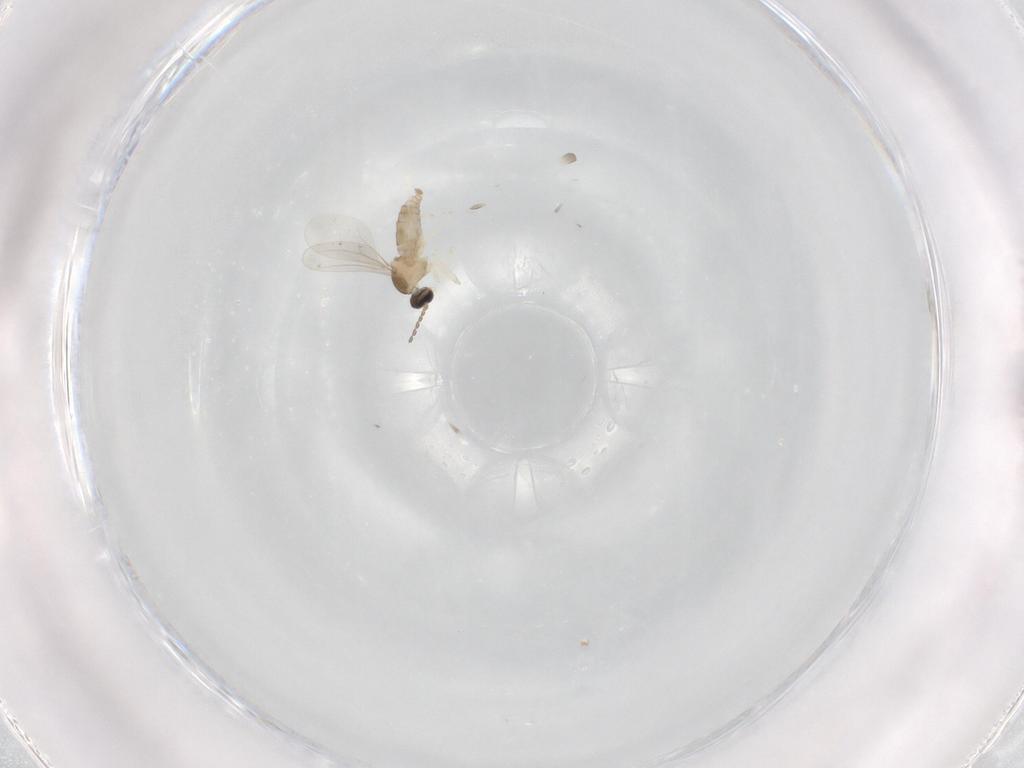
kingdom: Animalia
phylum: Arthropoda
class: Insecta
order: Diptera
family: Cecidomyiidae
